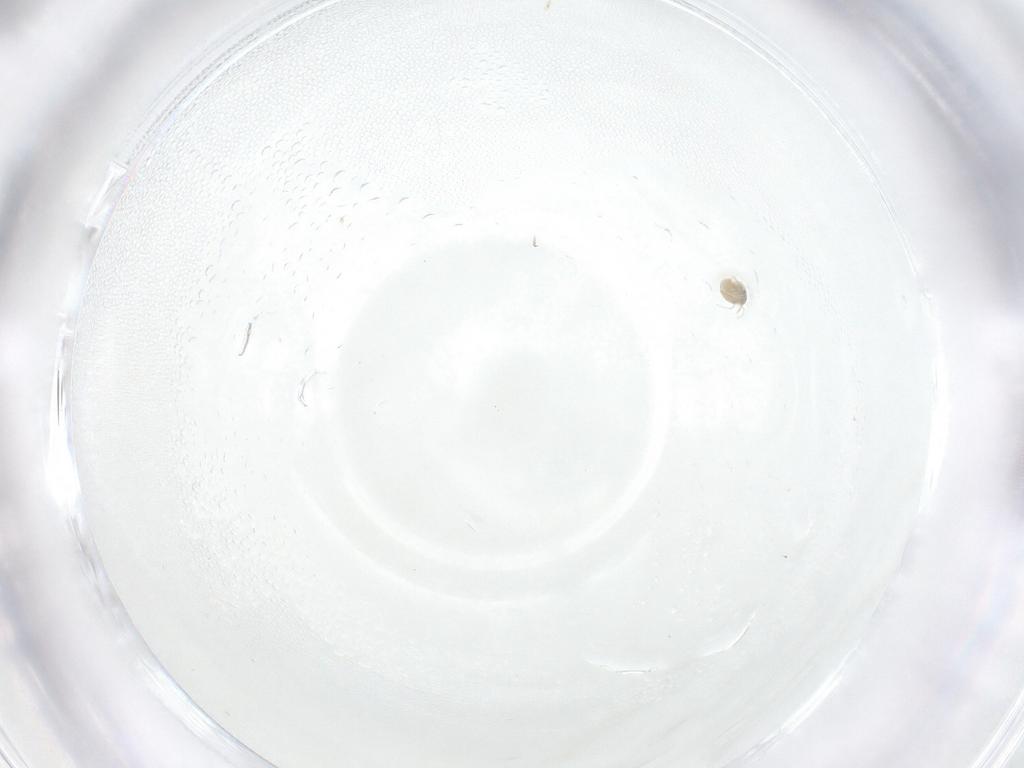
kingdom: Animalia
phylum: Arthropoda
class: Arachnida
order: Trombidiformes
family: Pionidae
